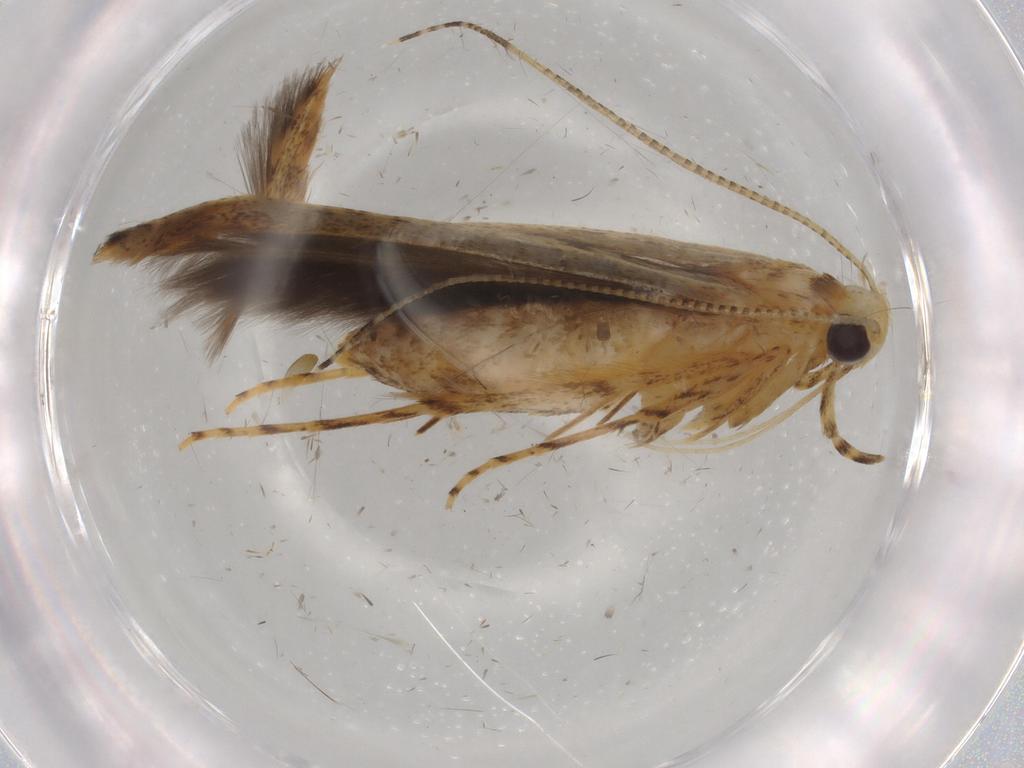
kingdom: Animalia
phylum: Arthropoda
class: Insecta
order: Lepidoptera
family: Batrachedridae
